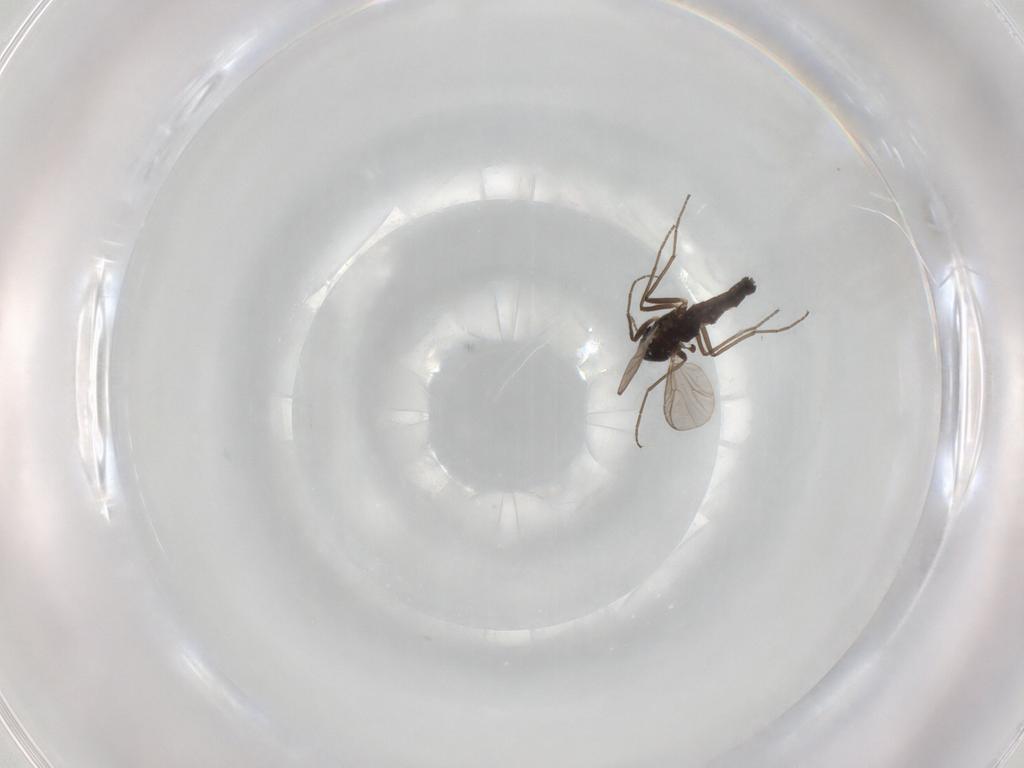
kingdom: Animalia
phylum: Arthropoda
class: Insecta
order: Diptera
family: Chironomidae
